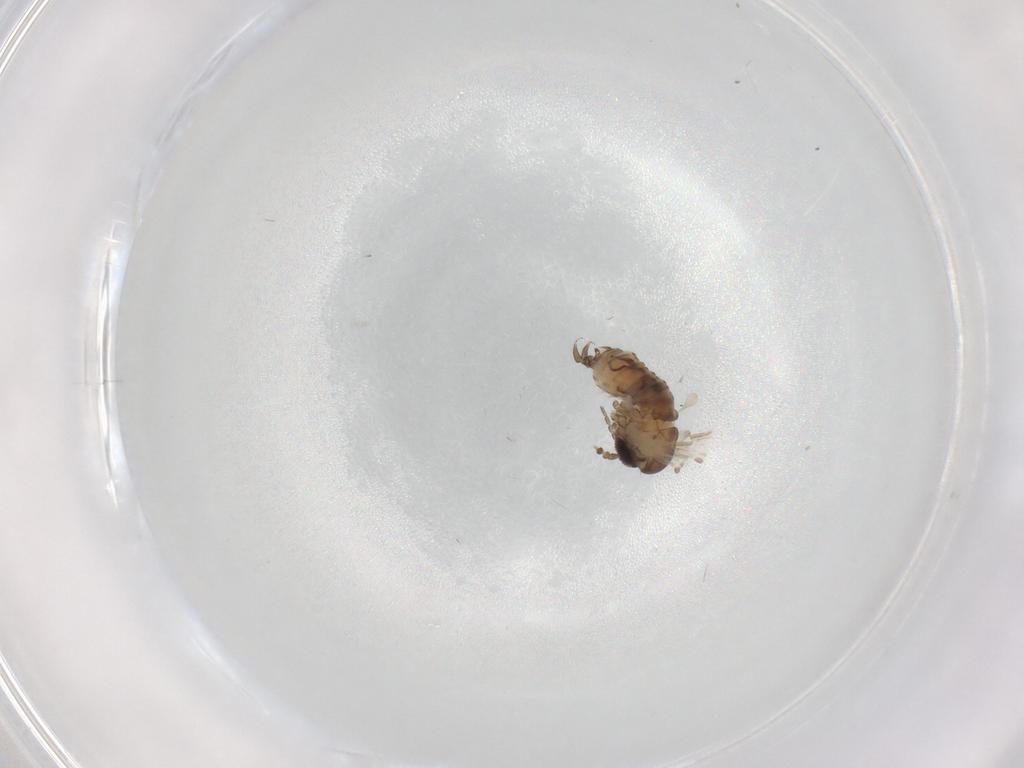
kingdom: Animalia
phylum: Arthropoda
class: Insecta
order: Diptera
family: Psychodidae
